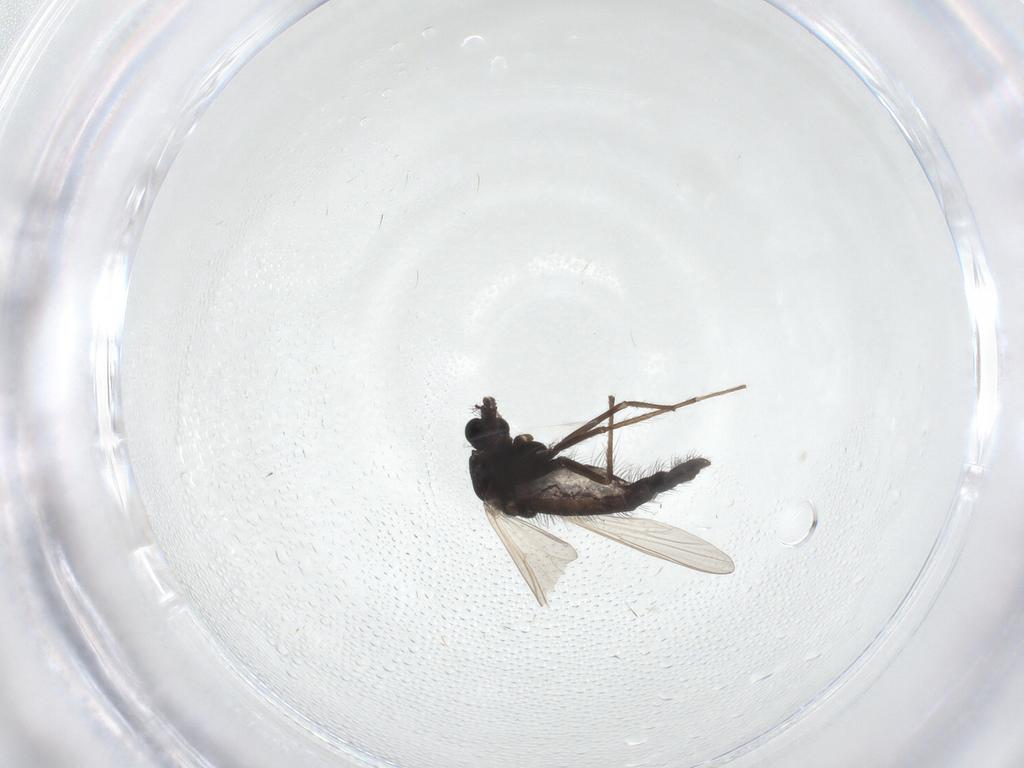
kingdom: Animalia
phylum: Arthropoda
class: Insecta
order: Diptera
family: Chironomidae
